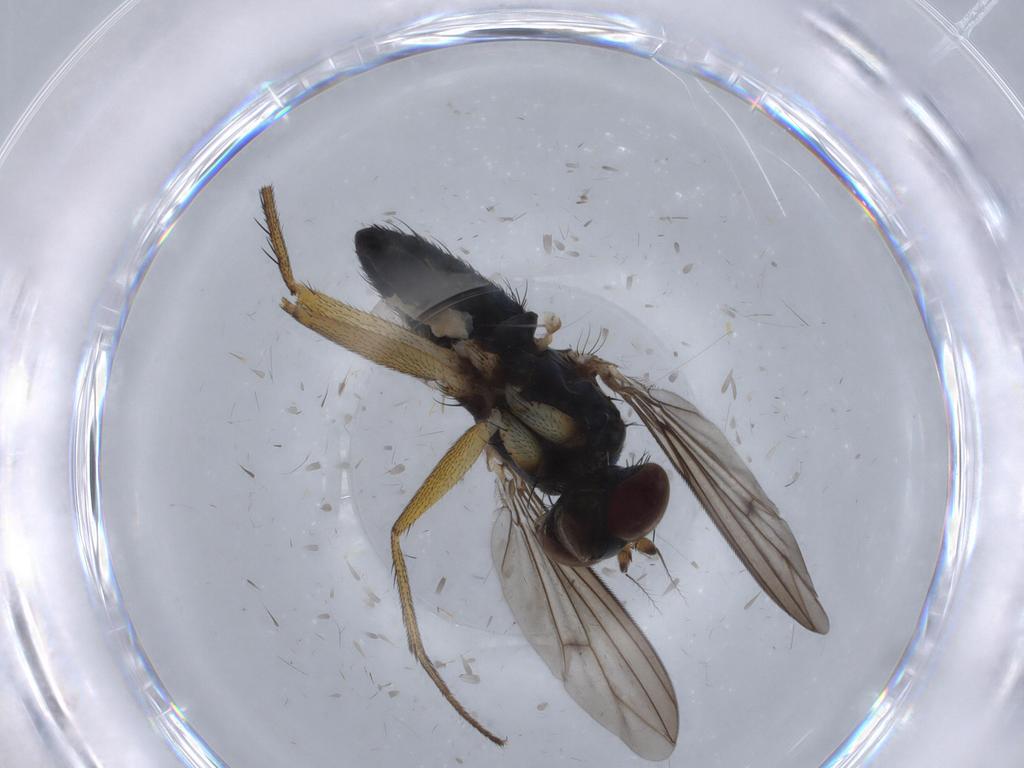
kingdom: Animalia
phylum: Arthropoda
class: Insecta
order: Diptera
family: Dolichopodidae
